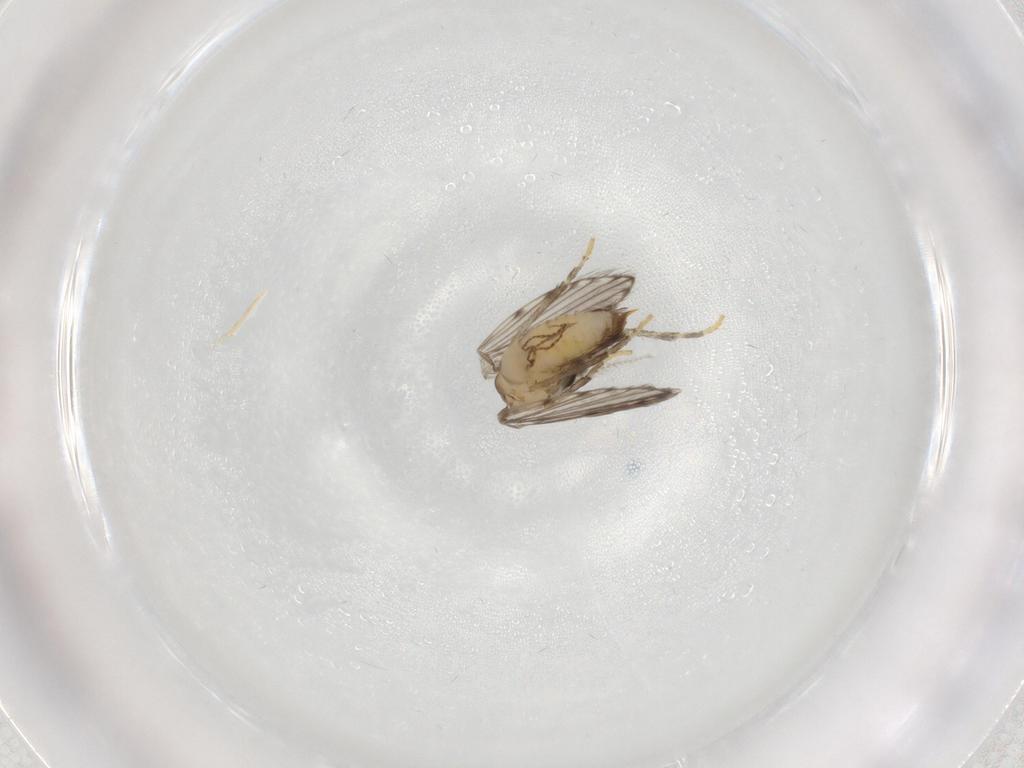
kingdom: Animalia
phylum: Arthropoda
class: Insecta
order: Diptera
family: Psychodidae
